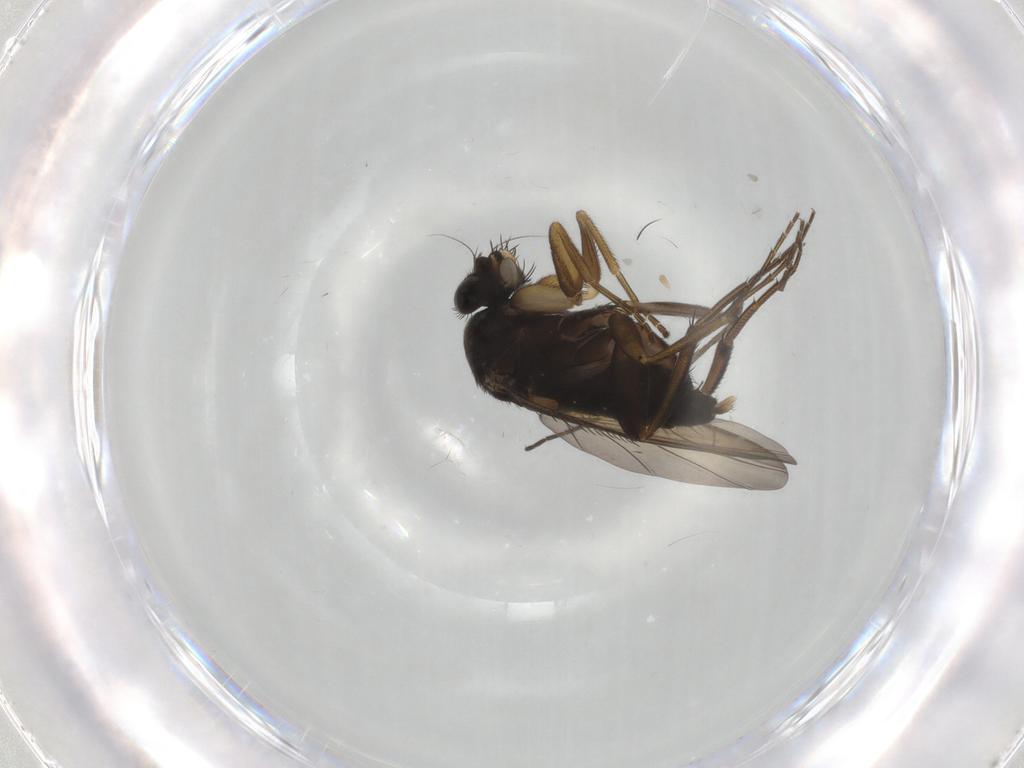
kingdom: Animalia
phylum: Arthropoda
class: Insecta
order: Diptera
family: Phoridae
